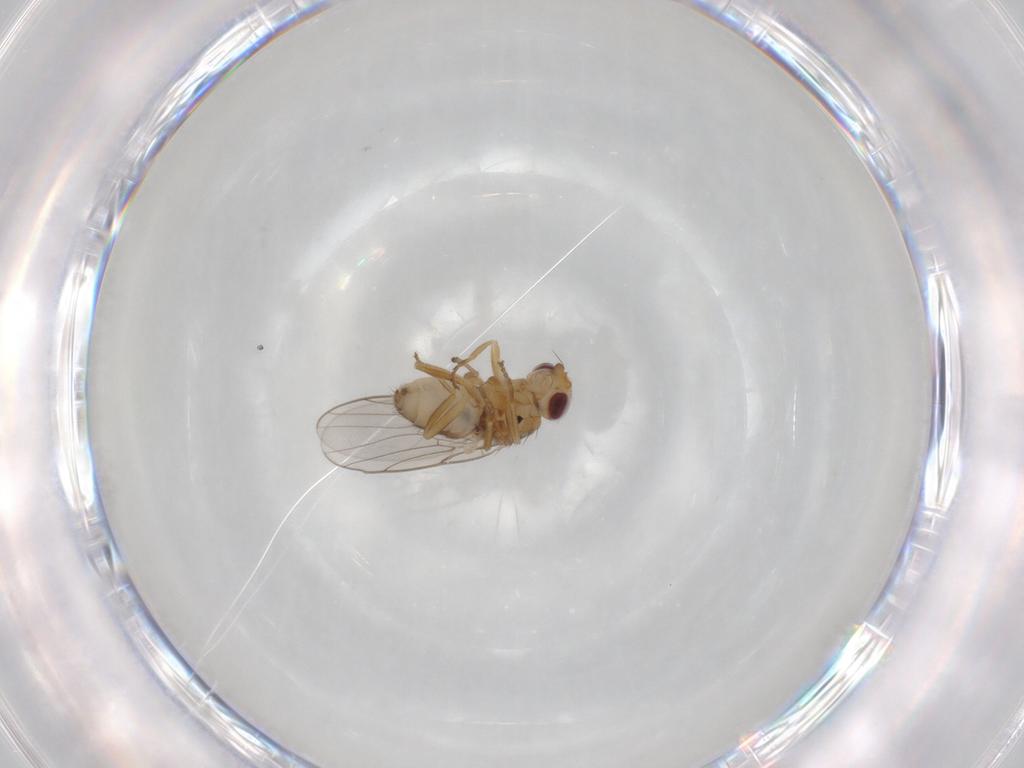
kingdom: Animalia
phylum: Arthropoda
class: Insecta
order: Diptera
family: Chloropidae
